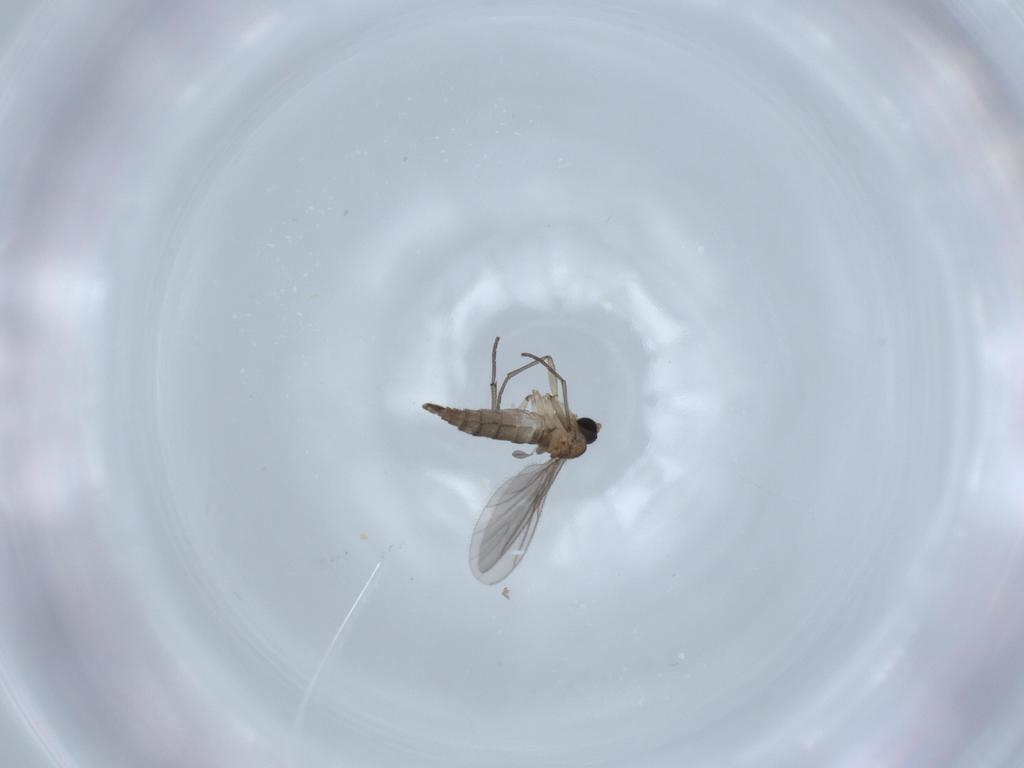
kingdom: Animalia
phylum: Arthropoda
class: Insecta
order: Diptera
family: Sciaridae
